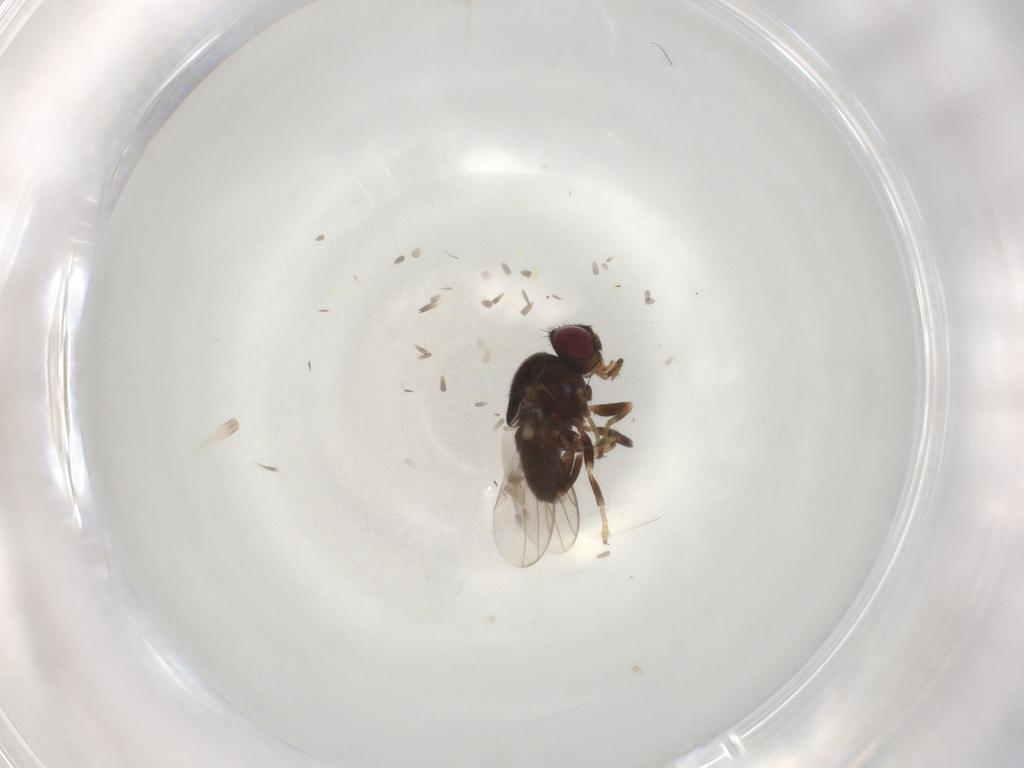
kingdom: Animalia
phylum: Arthropoda
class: Insecta
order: Diptera
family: Chloropidae
